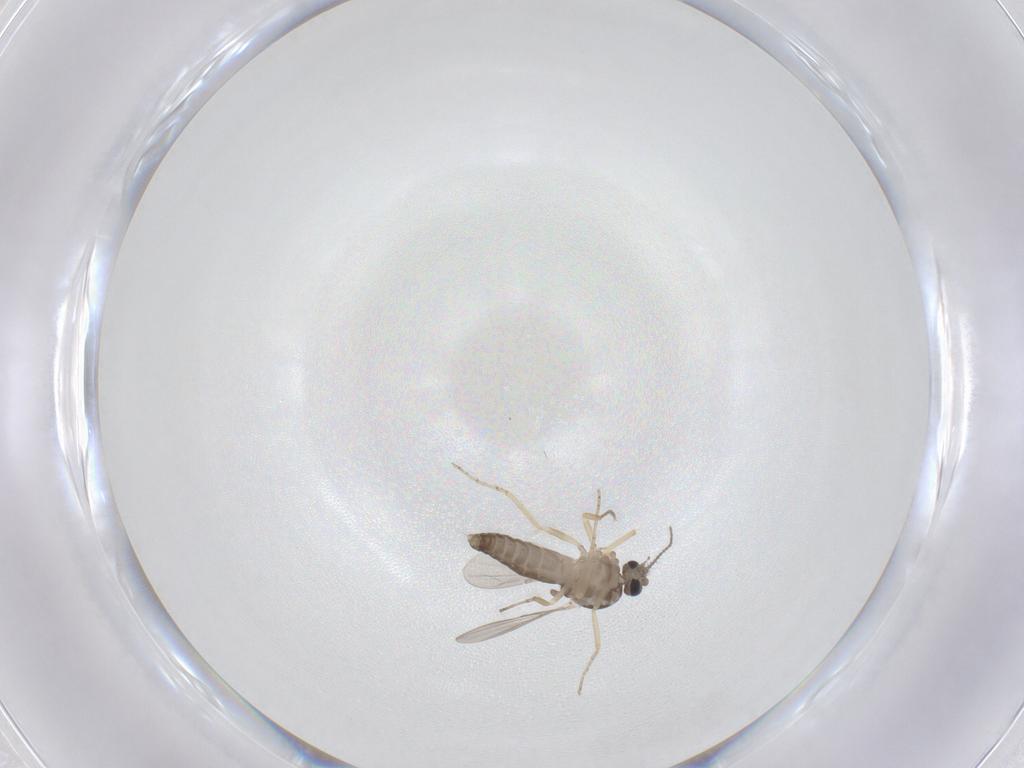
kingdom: Animalia
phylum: Arthropoda
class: Insecta
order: Diptera
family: Ceratopogonidae
